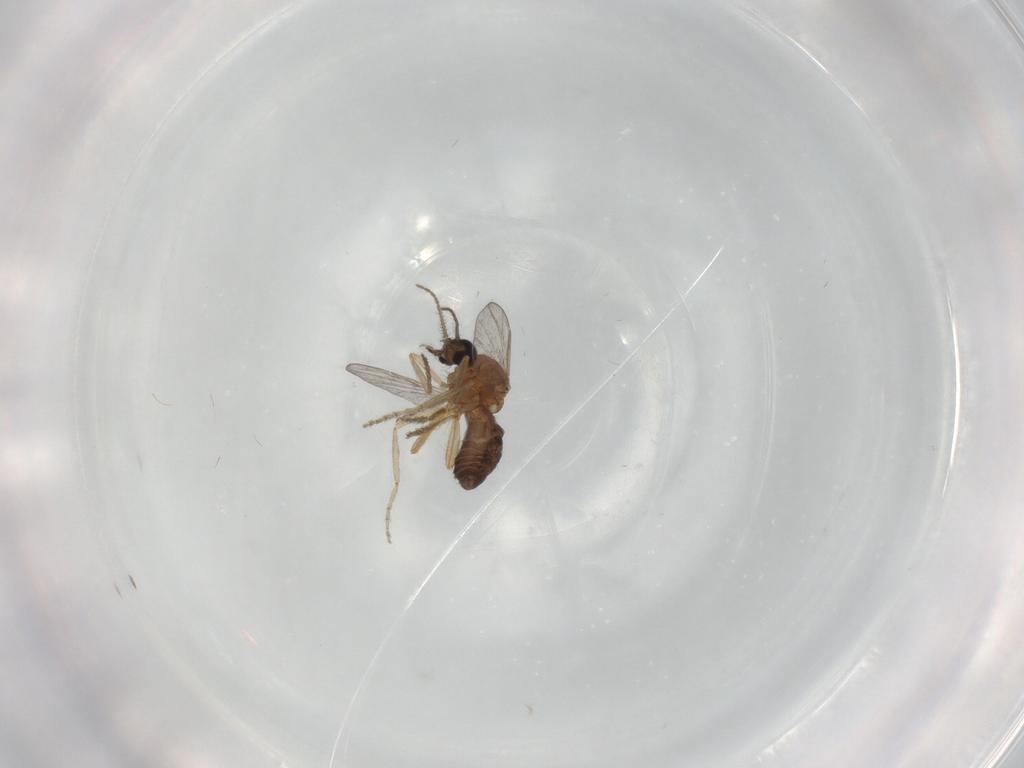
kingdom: Animalia
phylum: Arthropoda
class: Insecta
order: Diptera
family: Ceratopogonidae
